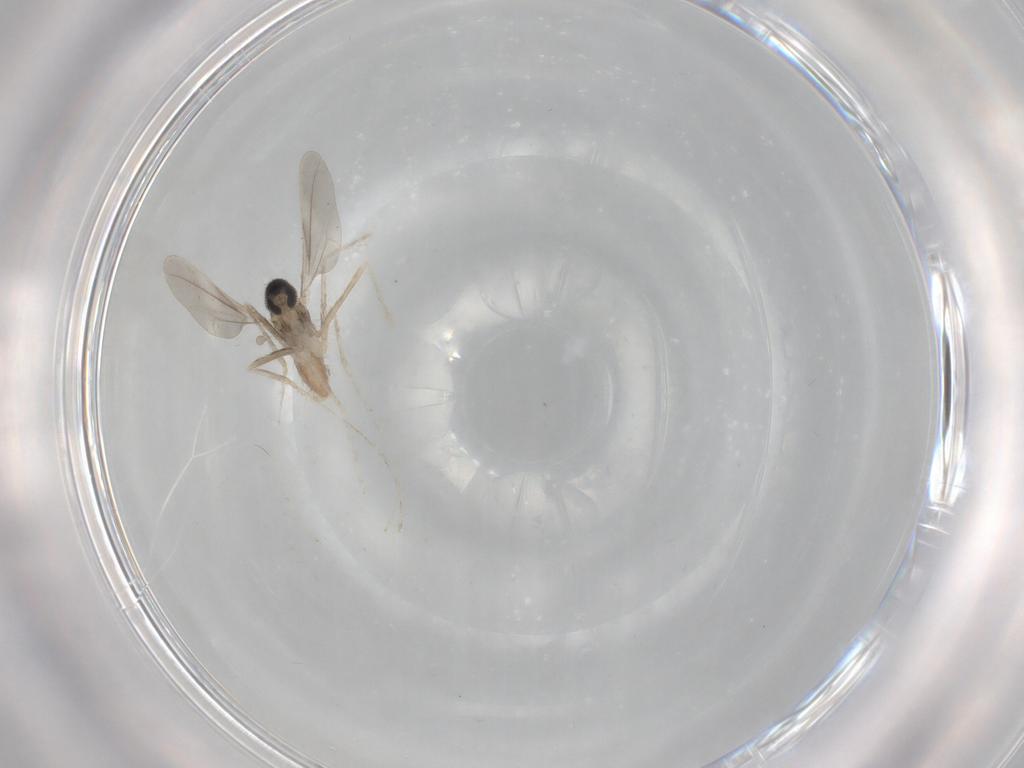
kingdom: Animalia
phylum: Arthropoda
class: Insecta
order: Diptera
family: Cecidomyiidae
